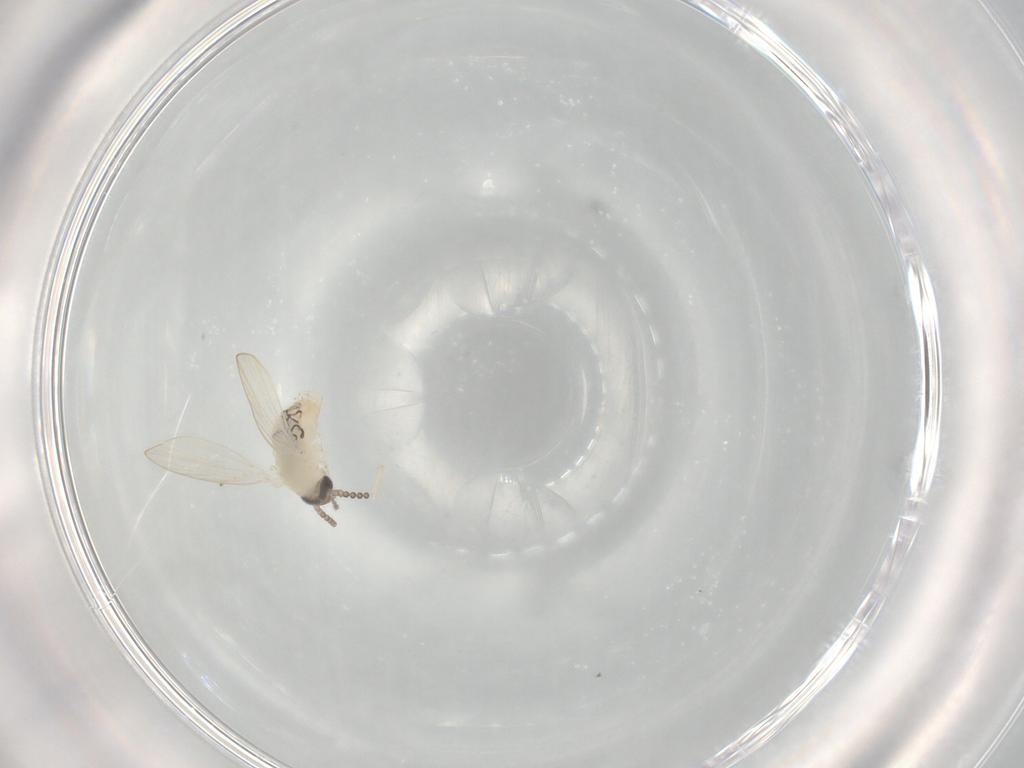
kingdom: Animalia
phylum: Arthropoda
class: Insecta
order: Diptera
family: Psychodidae
